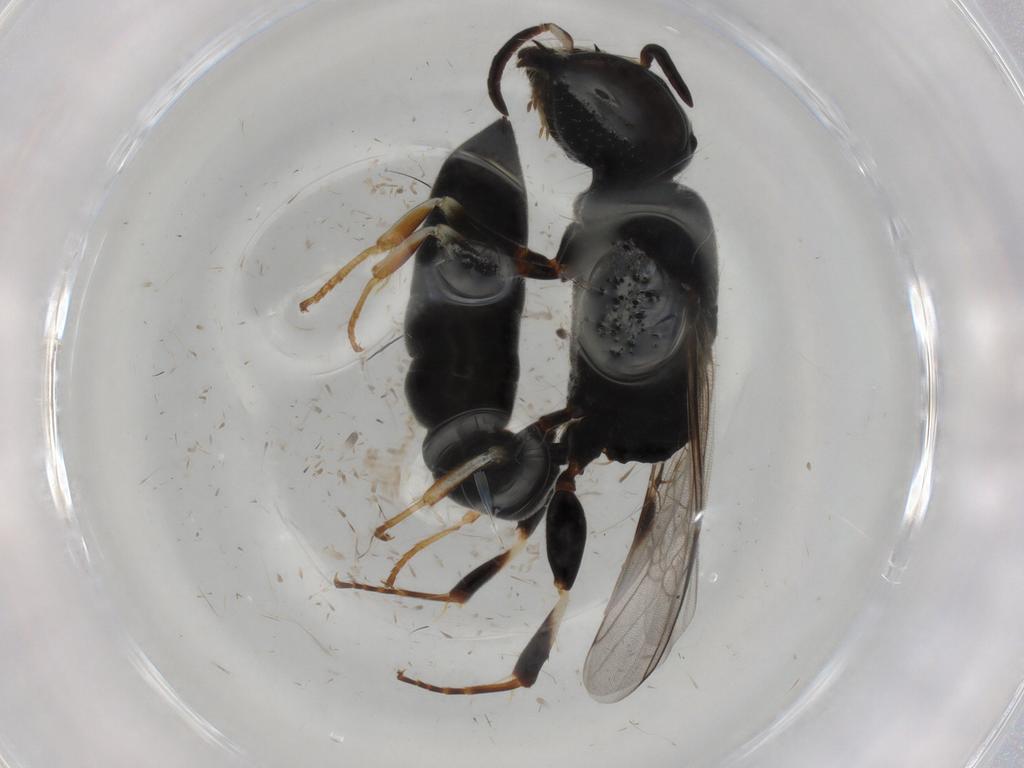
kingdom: Animalia
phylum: Arthropoda
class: Insecta
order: Hymenoptera
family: Crabronidae
